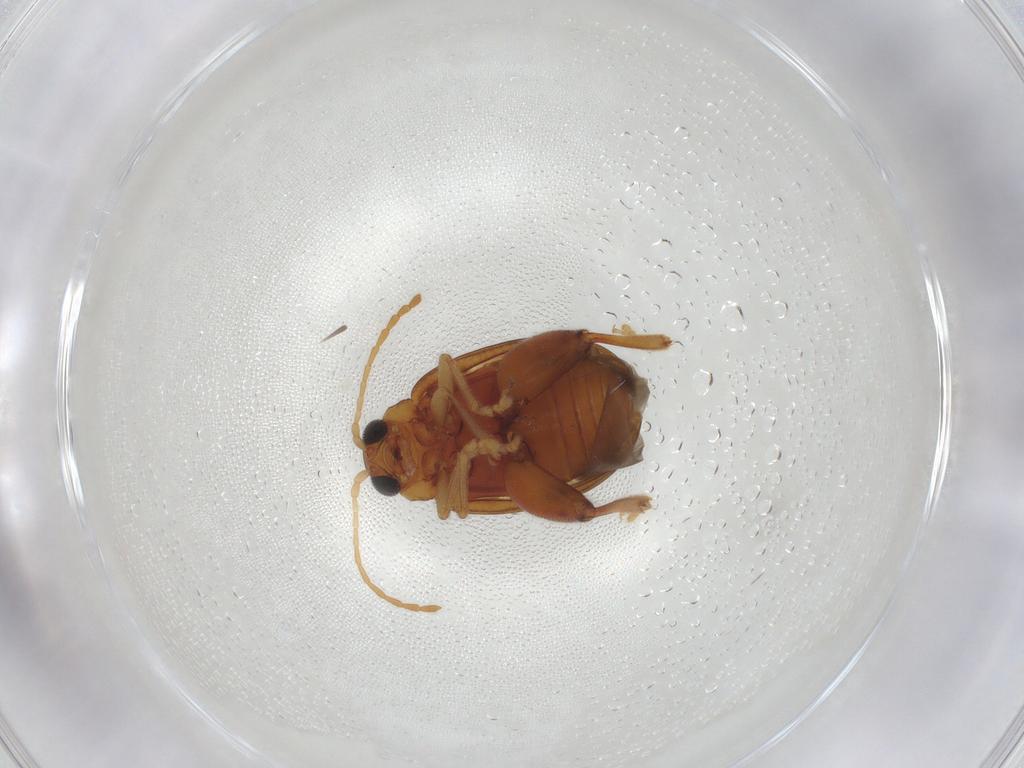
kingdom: Animalia
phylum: Arthropoda
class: Insecta
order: Coleoptera
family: Chrysomelidae
